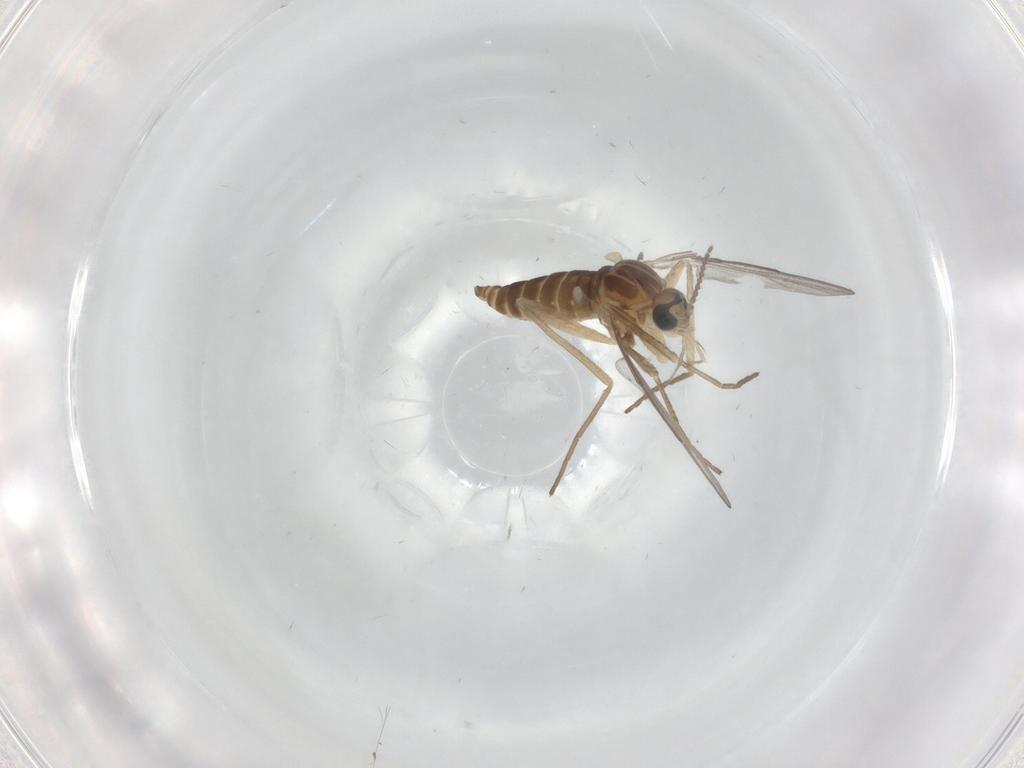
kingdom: Animalia
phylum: Arthropoda
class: Insecta
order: Diptera
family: Cecidomyiidae
